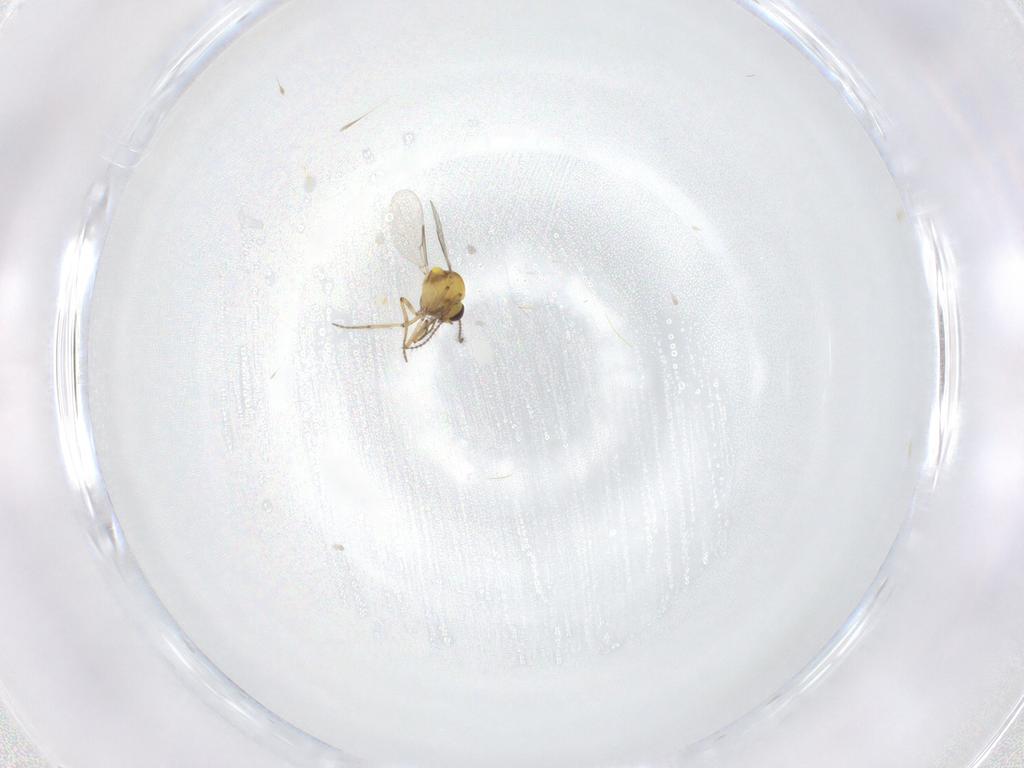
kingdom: Animalia
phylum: Arthropoda
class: Insecta
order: Diptera
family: Ceratopogonidae
